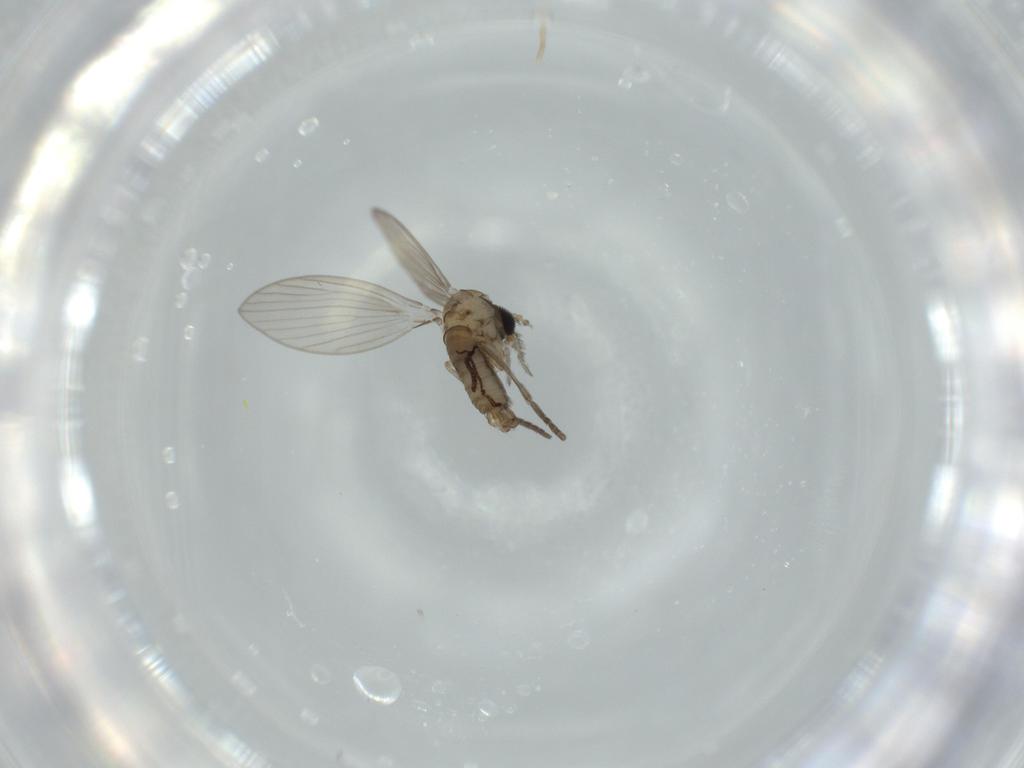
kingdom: Animalia
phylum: Arthropoda
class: Insecta
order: Diptera
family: Psychodidae
